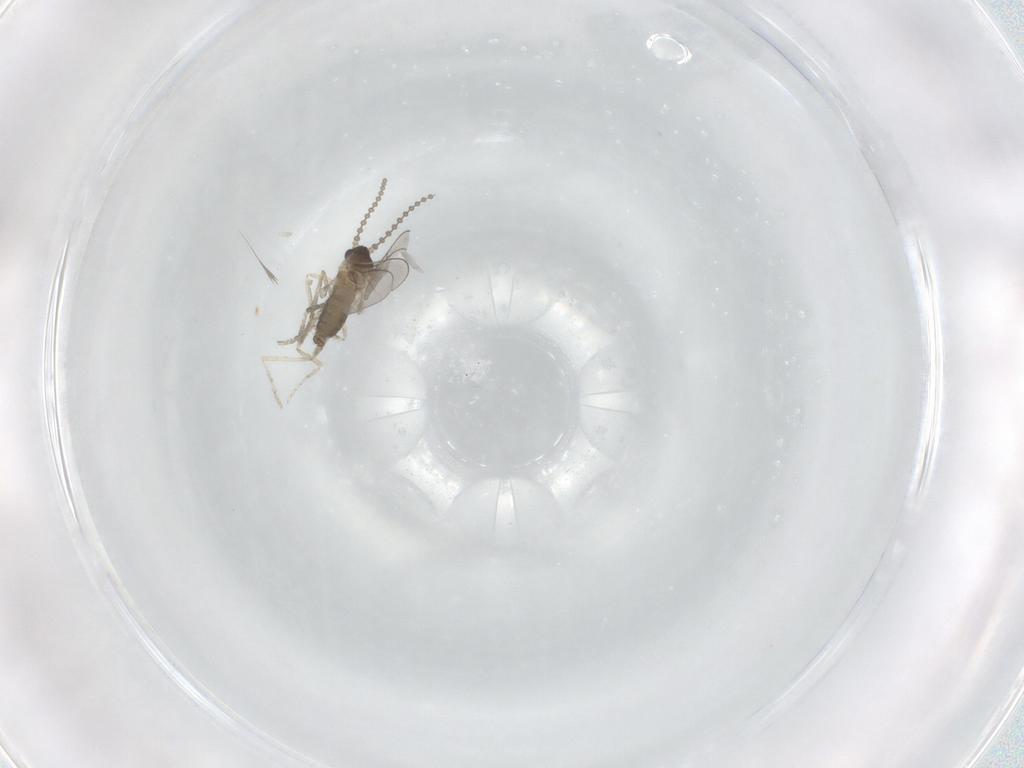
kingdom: Animalia
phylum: Arthropoda
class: Insecta
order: Diptera
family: Chironomidae
